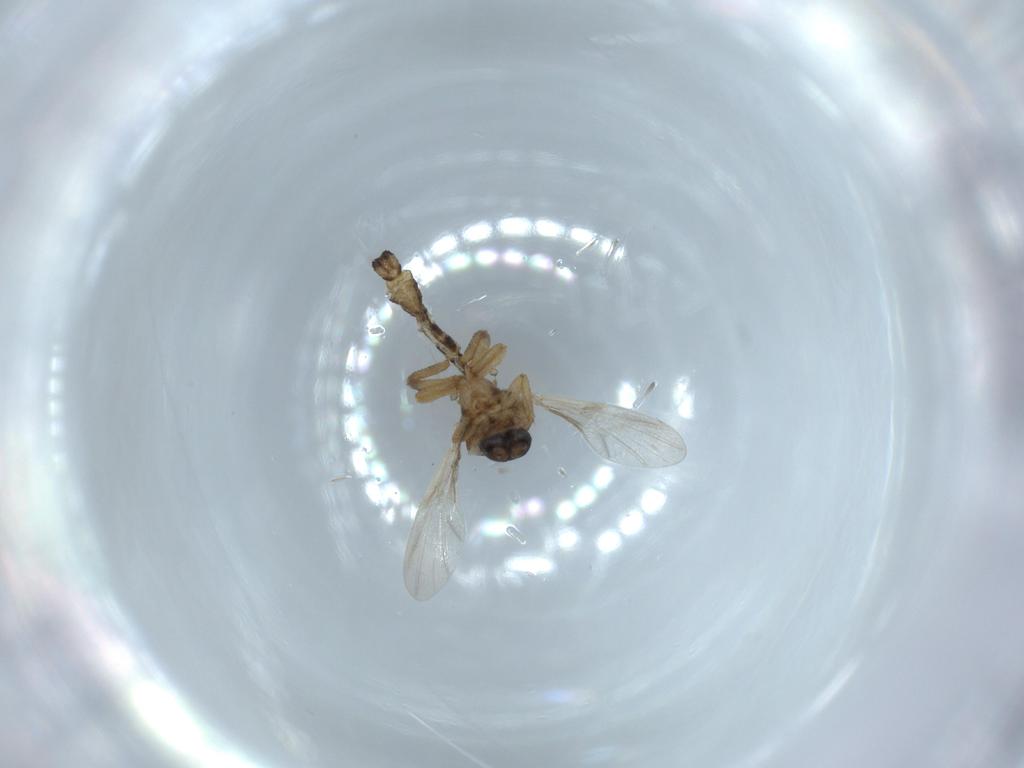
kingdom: Animalia
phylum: Arthropoda
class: Insecta
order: Diptera
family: Ceratopogonidae
